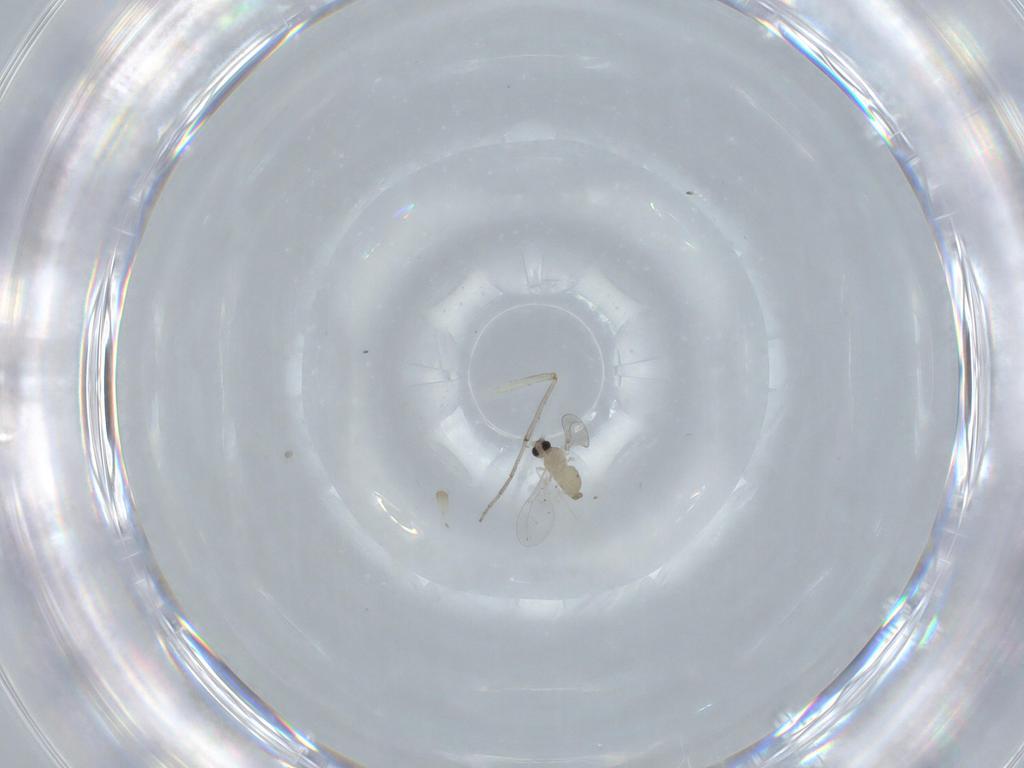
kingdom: Animalia
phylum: Arthropoda
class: Insecta
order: Diptera
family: Cecidomyiidae
